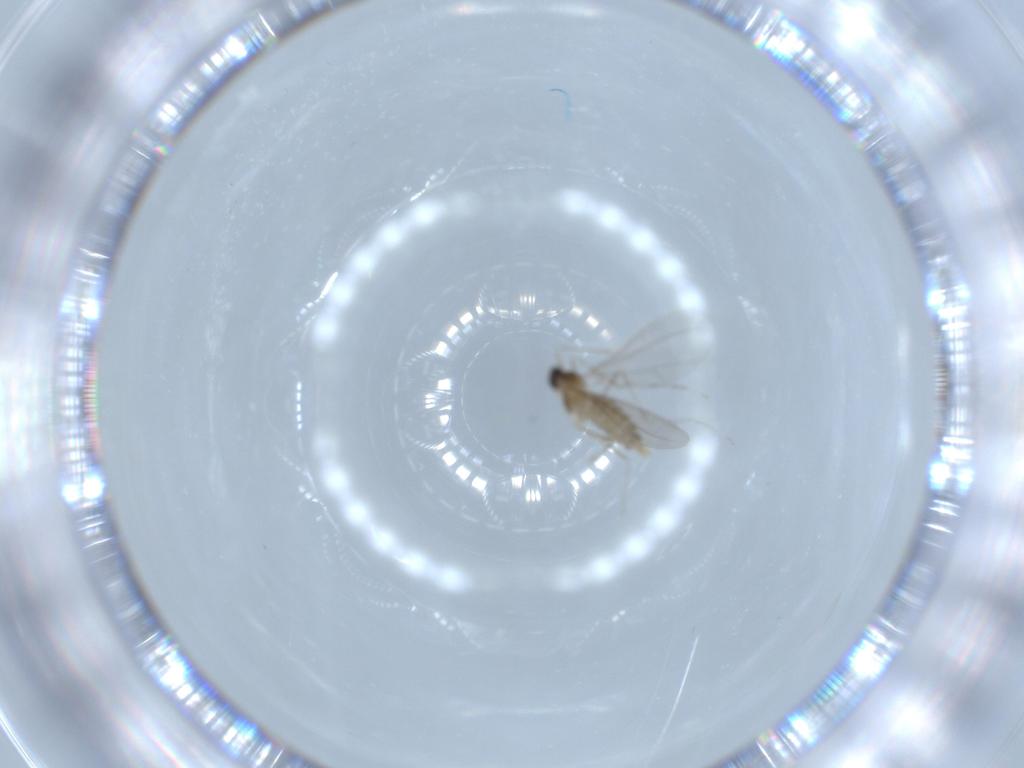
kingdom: Animalia
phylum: Arthropoda
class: Insecta
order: Diptera
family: Cecidomyiidae
